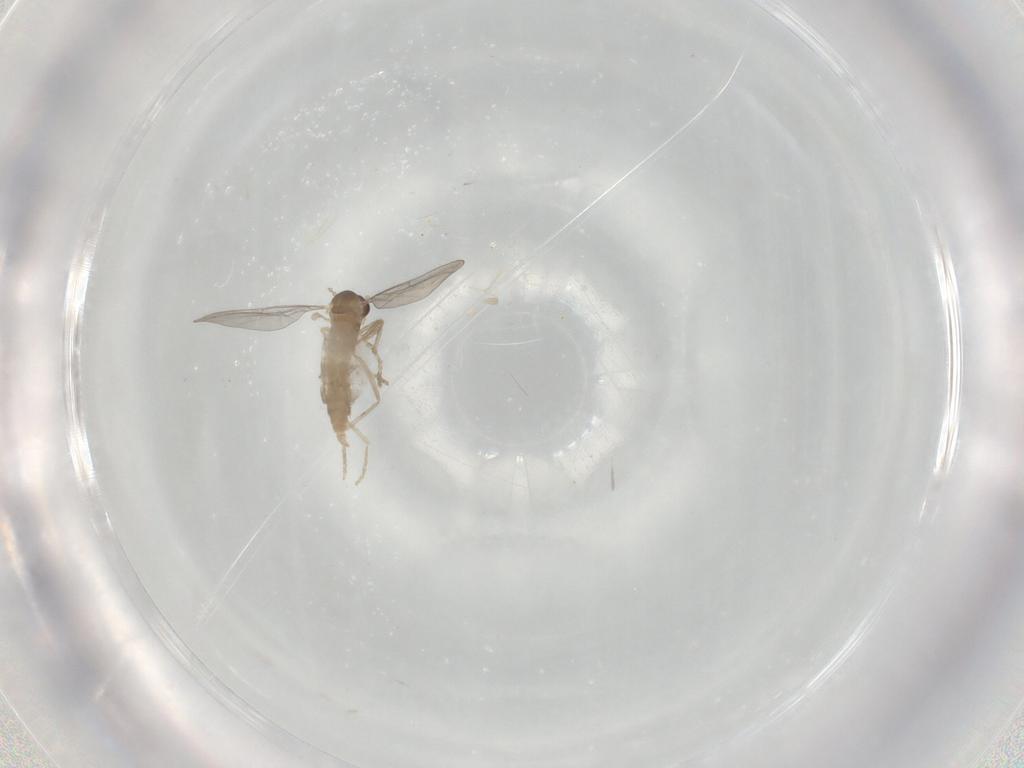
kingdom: Animalia
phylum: Arthropoda
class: Insecta
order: Diptera
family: Cecidomyiidae
